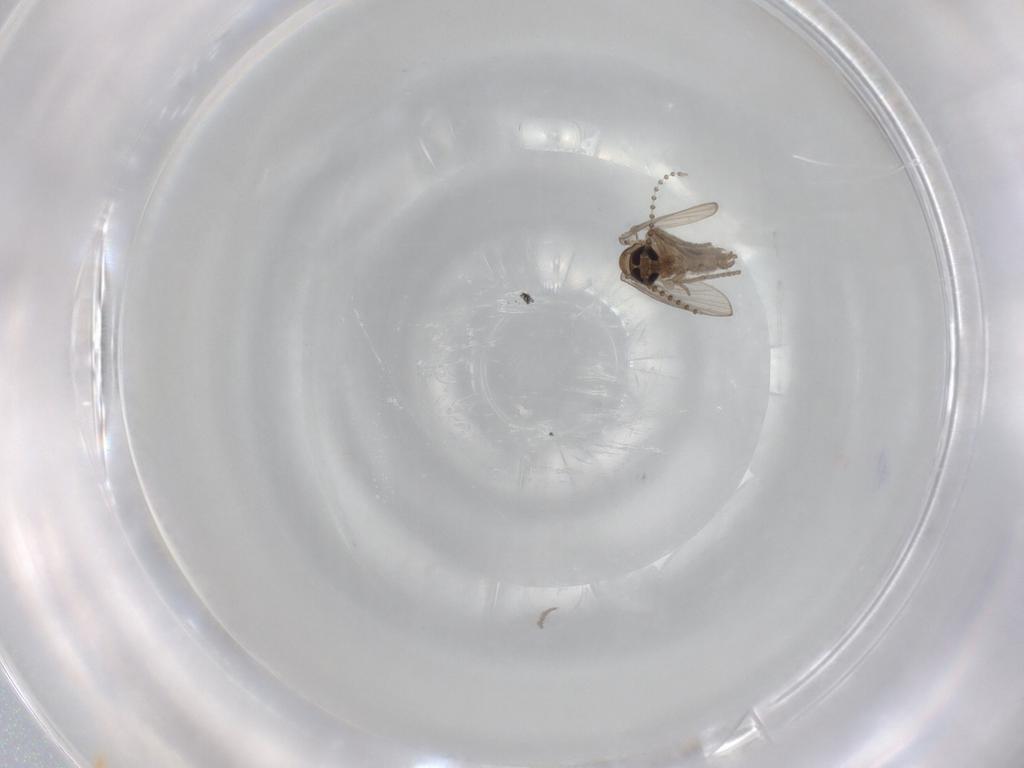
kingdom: Animalia
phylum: Arthropoda
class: Insecta
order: Diptera
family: Psychodidae
